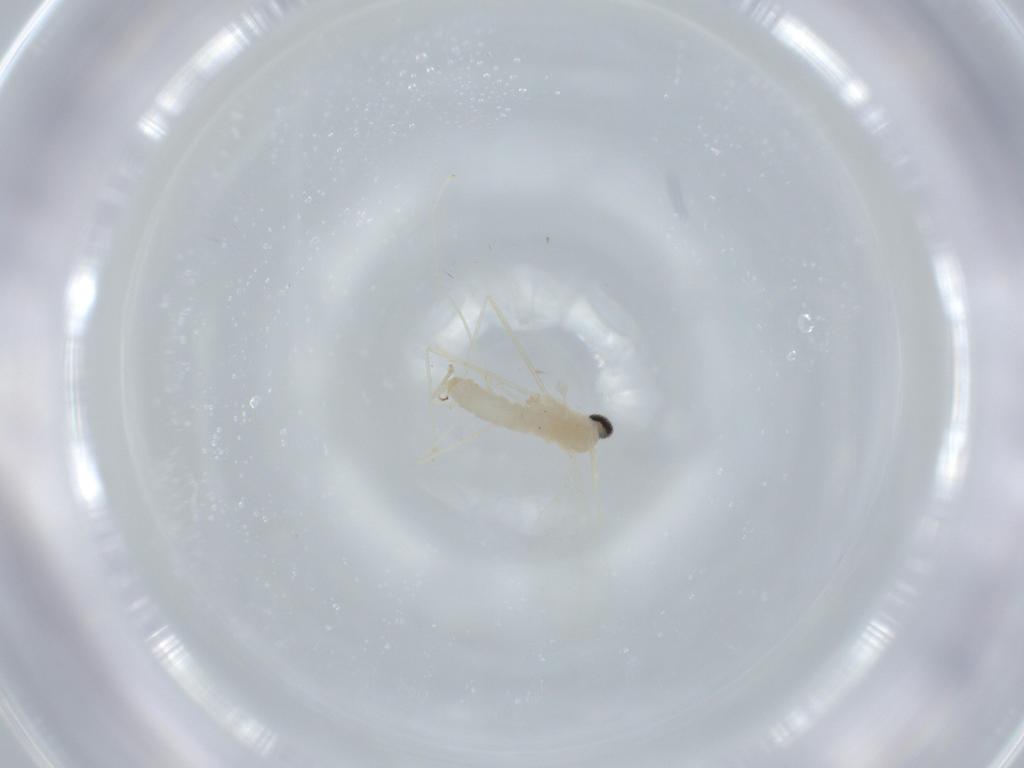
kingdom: Animalia
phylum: Arthropoda
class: Insecta
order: Diptera
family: Cecidomyiidae
